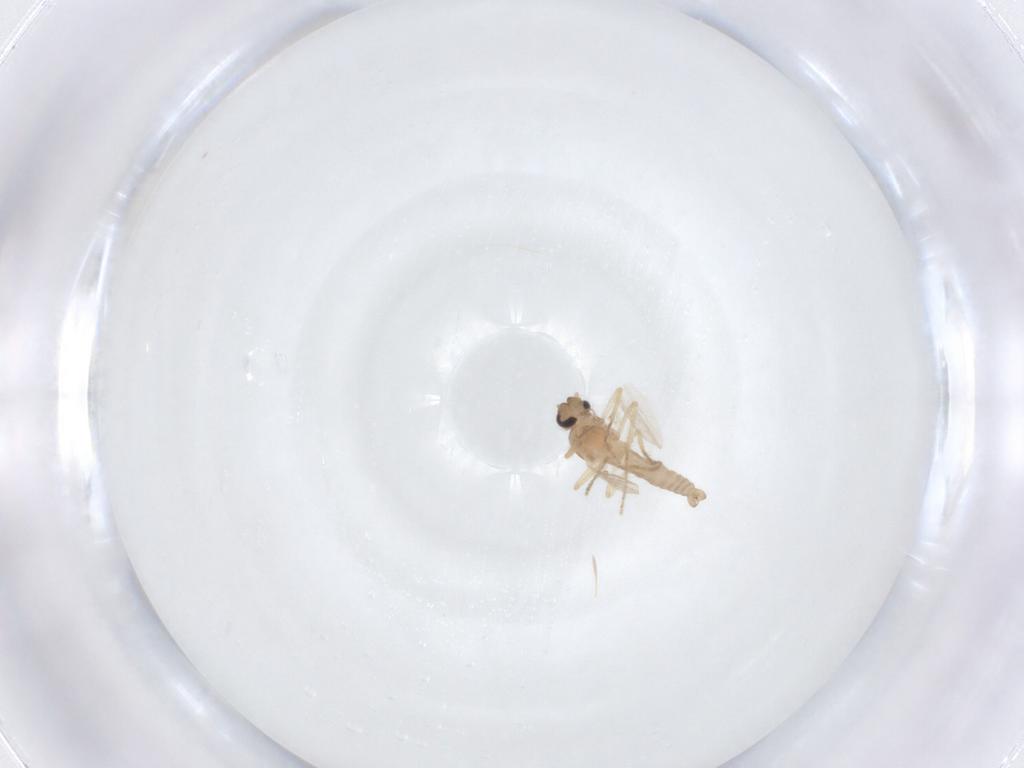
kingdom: Animalia
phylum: Arthropoda
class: Insecta
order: Diptera
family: Ceratopogonidae
